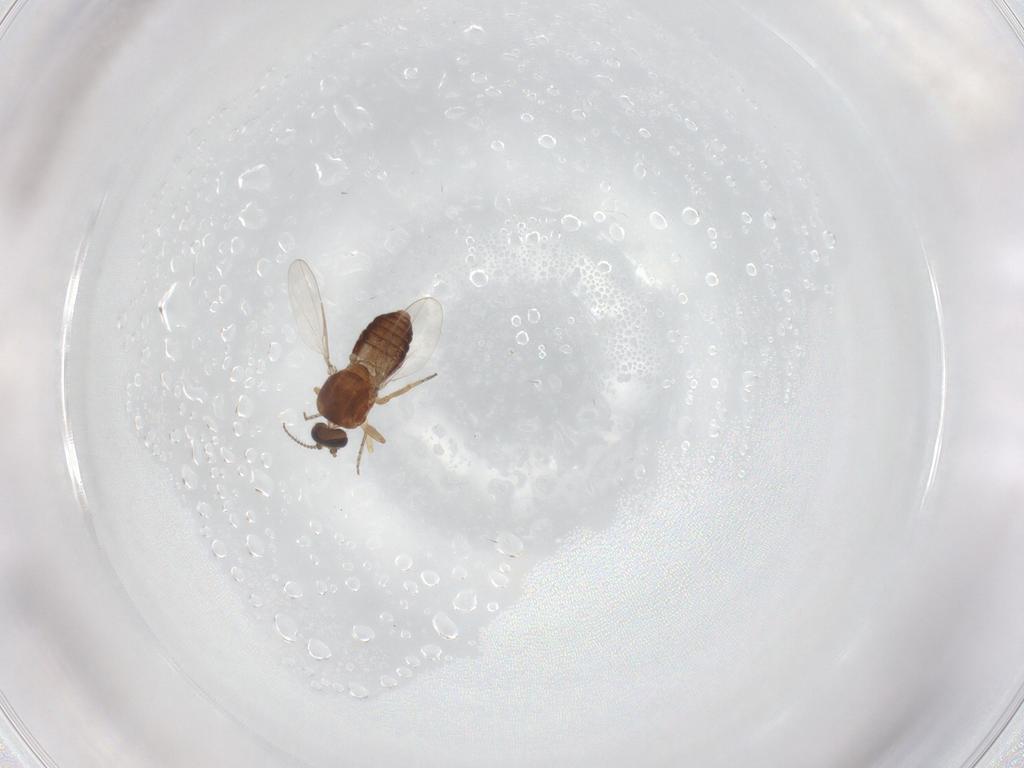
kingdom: Animalia
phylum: Arthropoda
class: Insecta
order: Diptera
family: Ceratopogonidae
